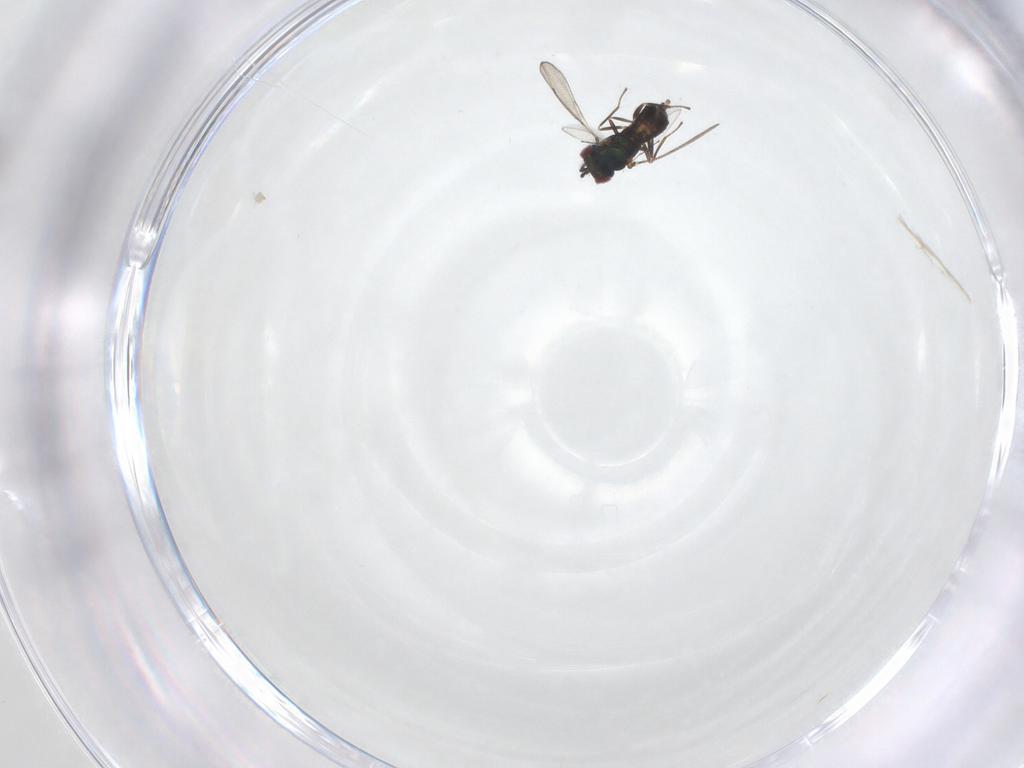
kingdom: Animalia
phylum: Arthropoda
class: Insecta
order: Hymenoptera
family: Eulophidae
